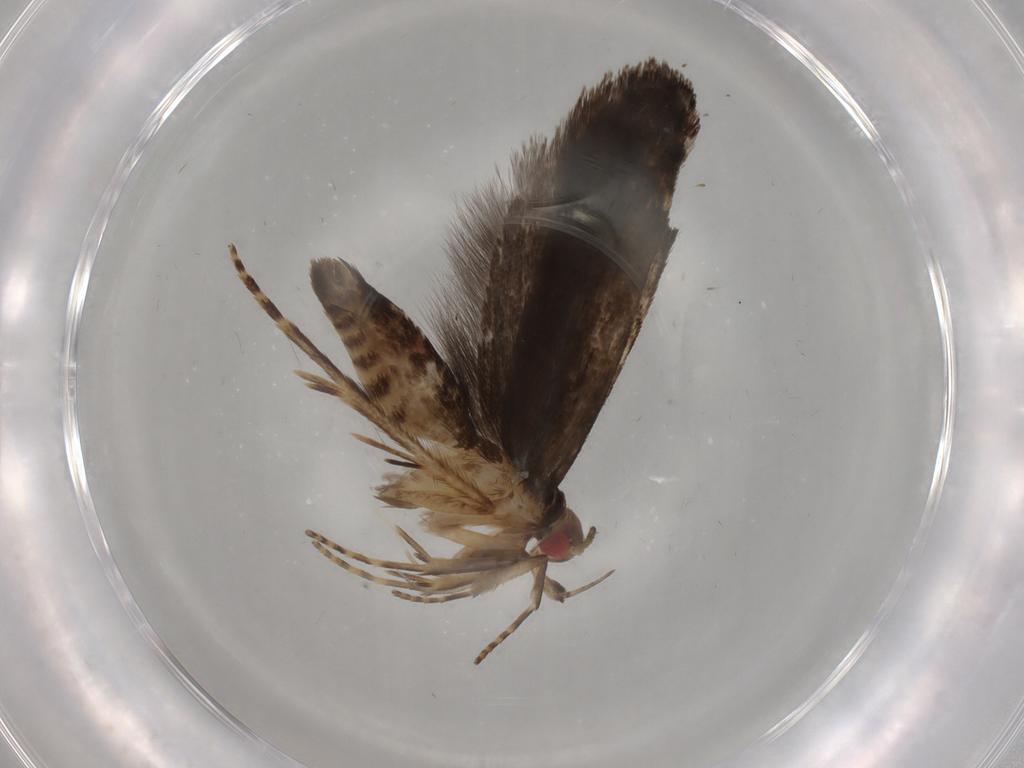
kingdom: Animalia
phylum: Arthropoda
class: Insecta
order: Lepidoptera
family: Gelechiidae
